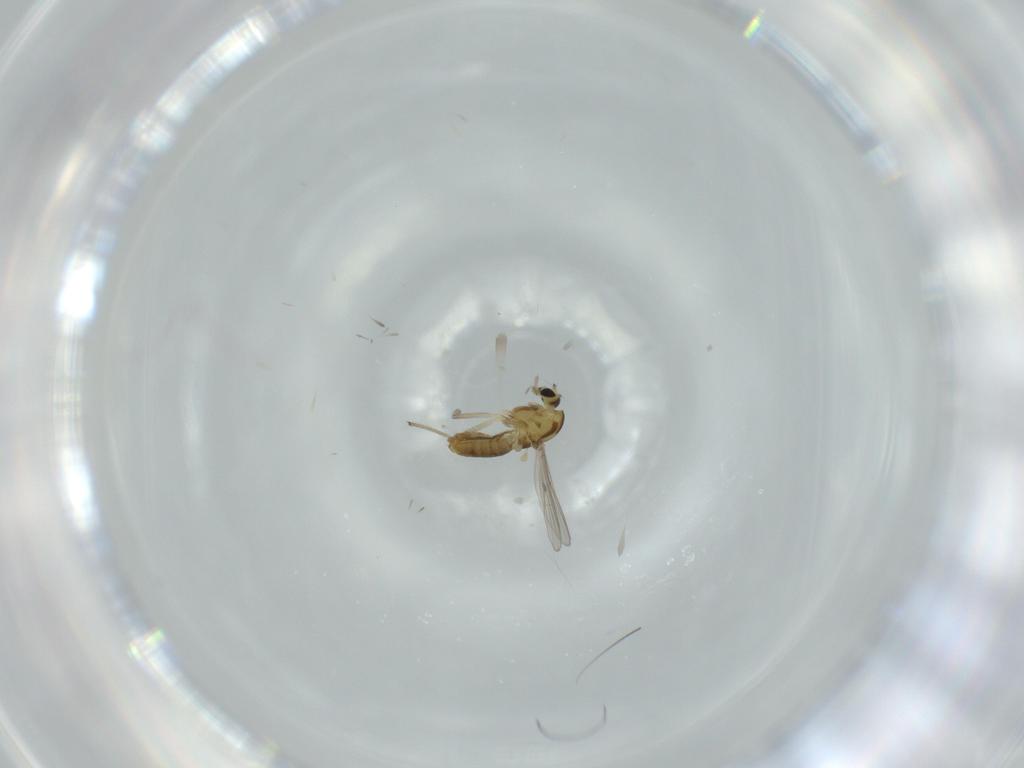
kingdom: Animalia
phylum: Arthropoda
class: Insecta
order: Diptera
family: Chironomidae
